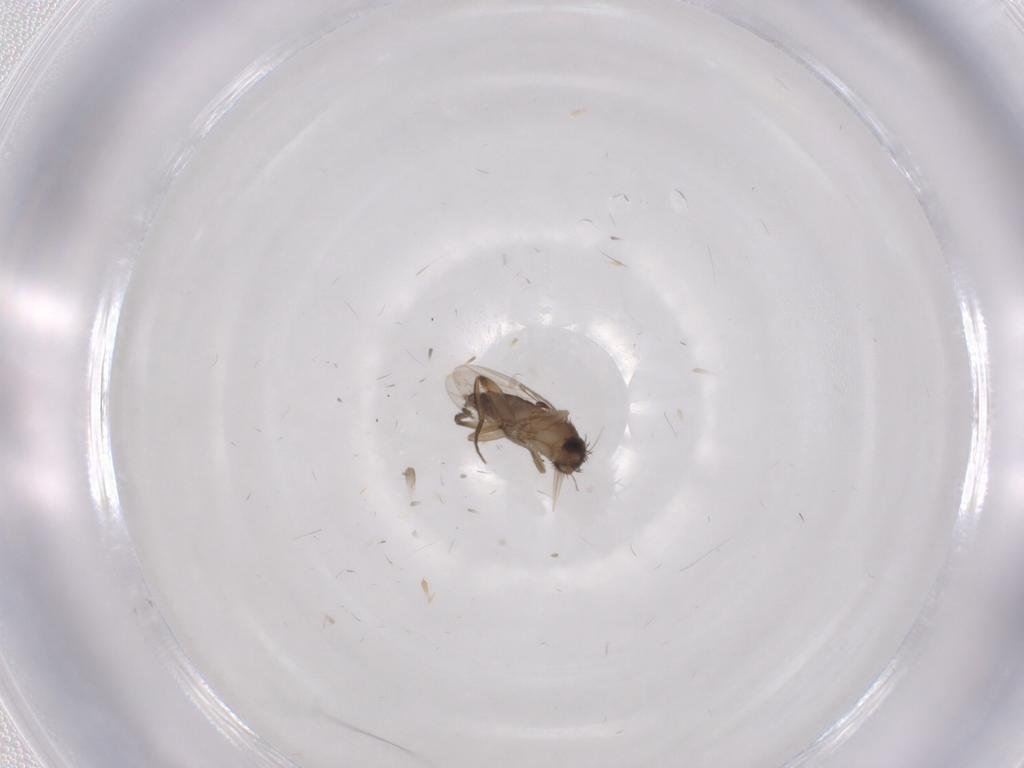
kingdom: Animalia
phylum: Arthropoda
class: Insecta
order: Diptera
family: Phoridae
